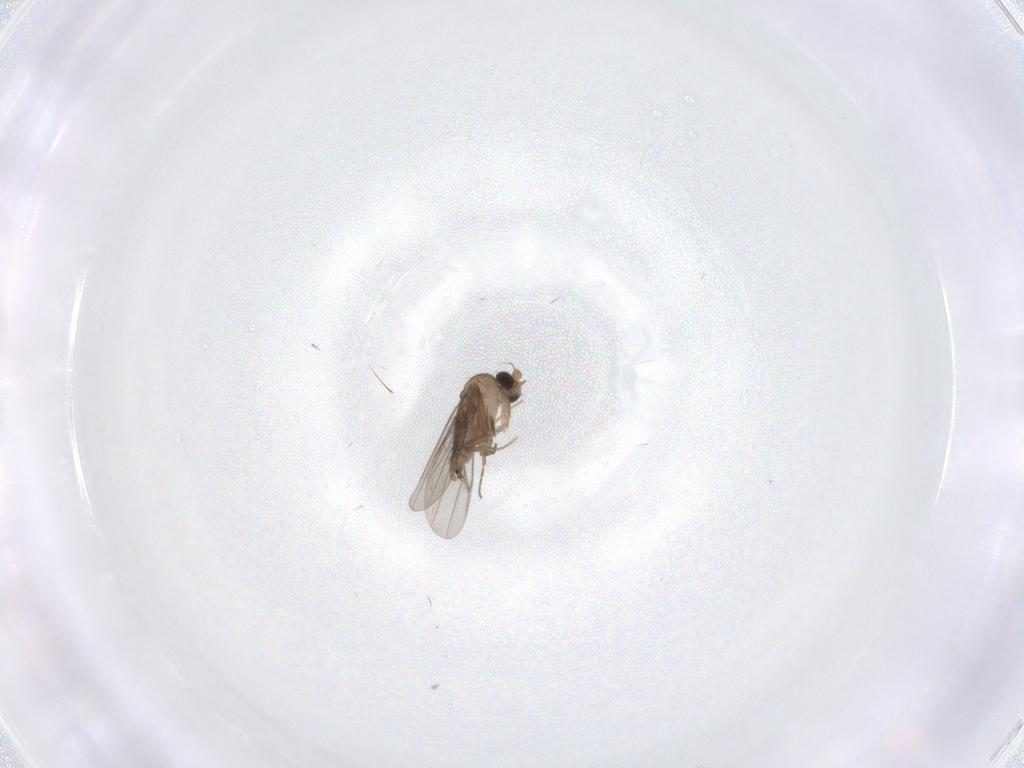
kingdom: Animalia
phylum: Arthropoda
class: Insecta
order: Diptera
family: Cecidomyiidae
